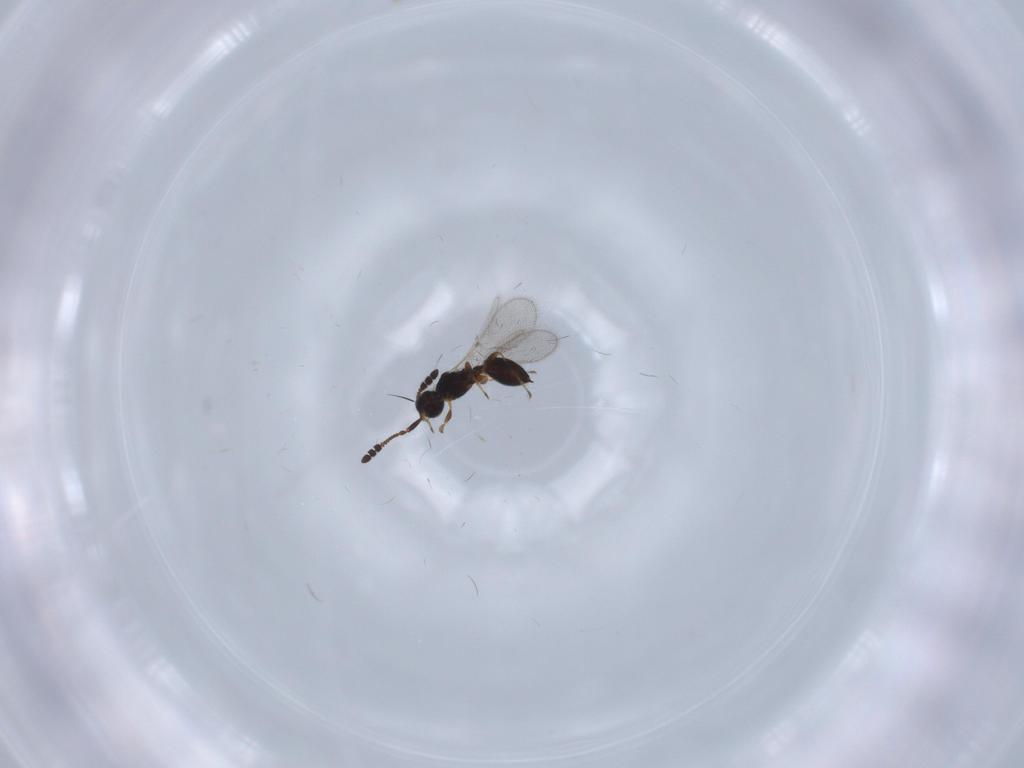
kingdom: Animalia
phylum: Arthropoda
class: Insecta
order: Hymenoptera
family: Diapriidae
